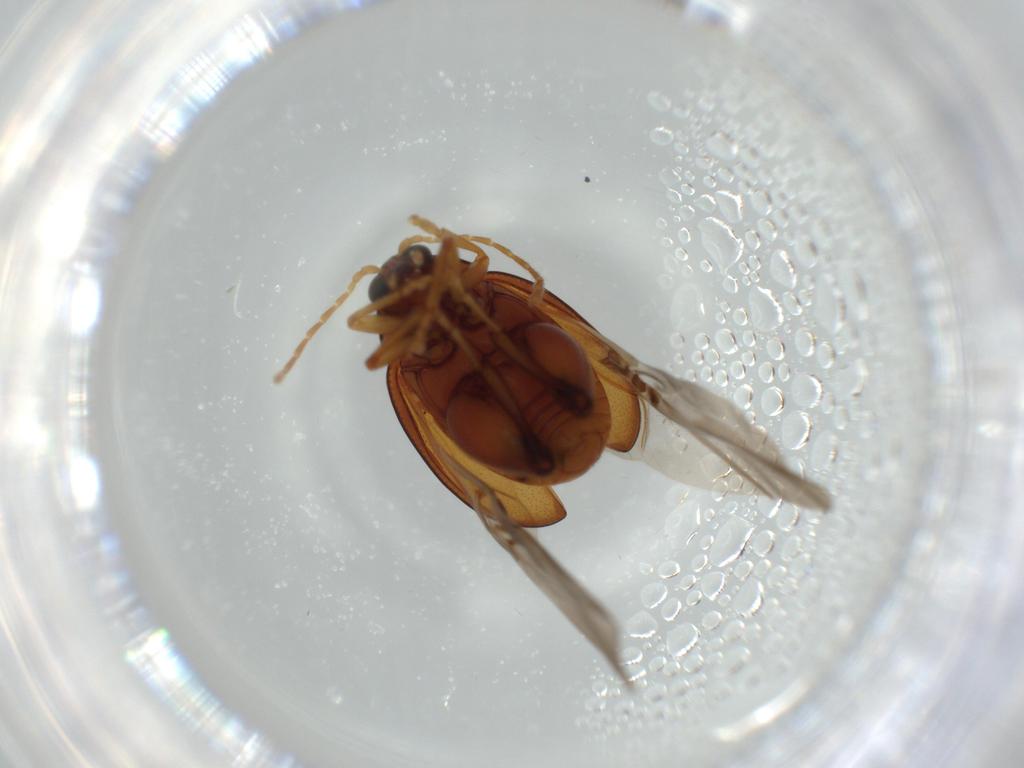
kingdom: Animalia
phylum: Arthropoda
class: Insecta
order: Coleoptera
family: Chrysomelidae
